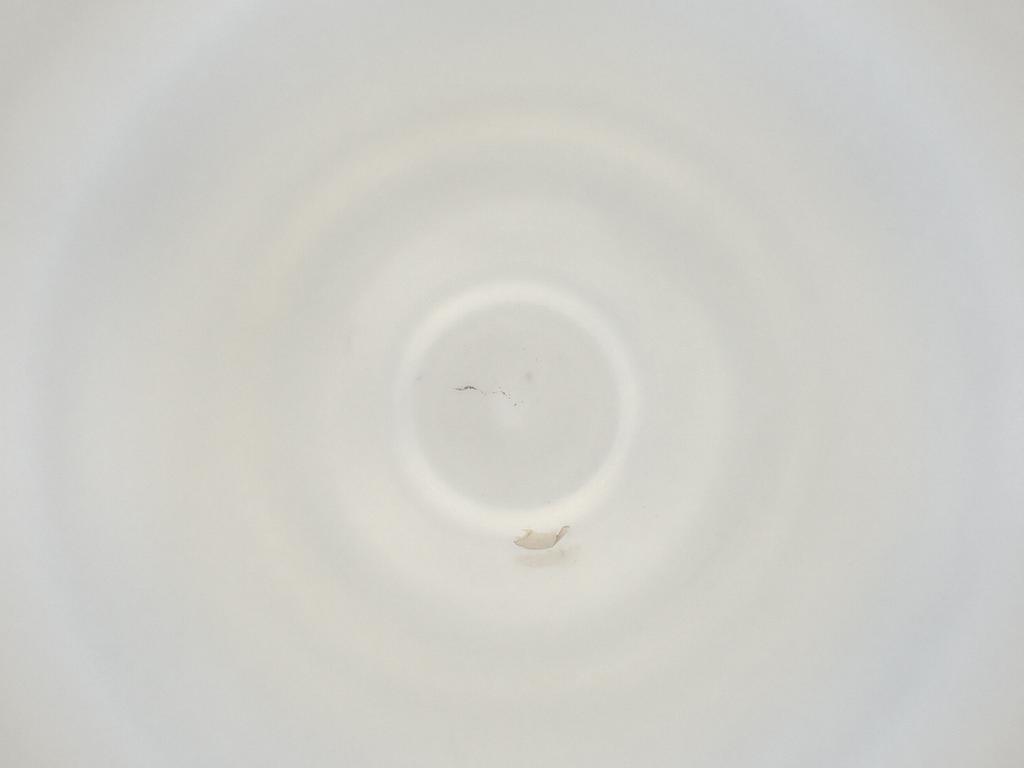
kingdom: Animalia
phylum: Arthropoda
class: Insecta
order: Diptera
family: Cecidomyiidae
